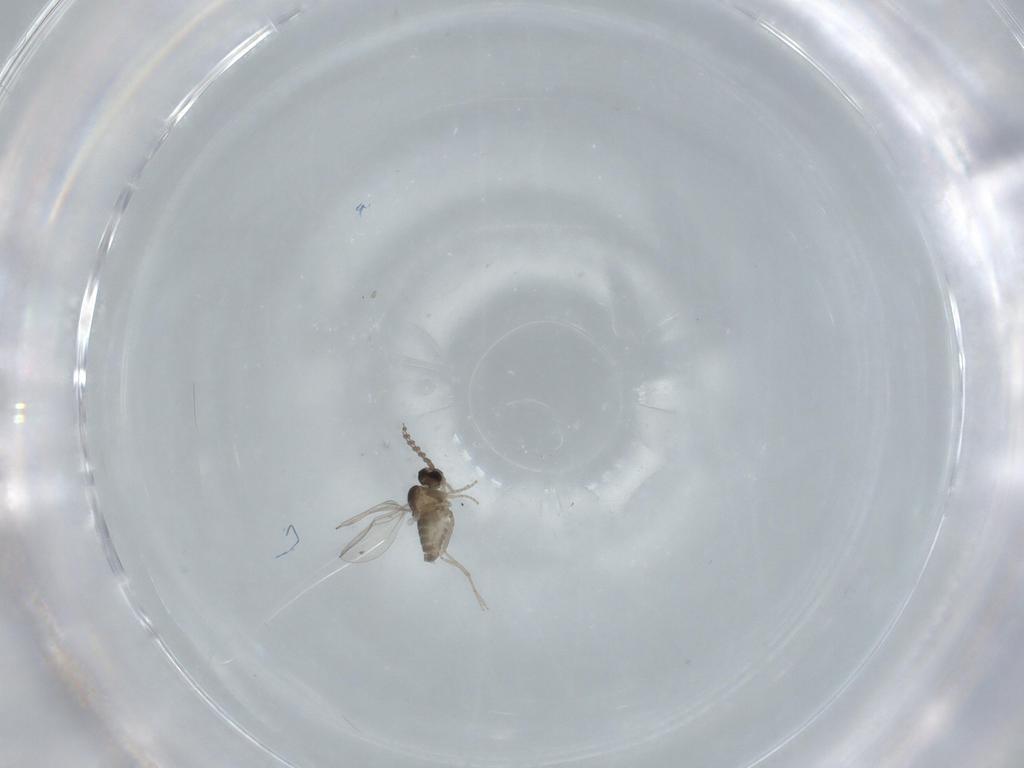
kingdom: Animalia
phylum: Arthropoda
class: Insecta
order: Diptera
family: Cecidomyiidae
